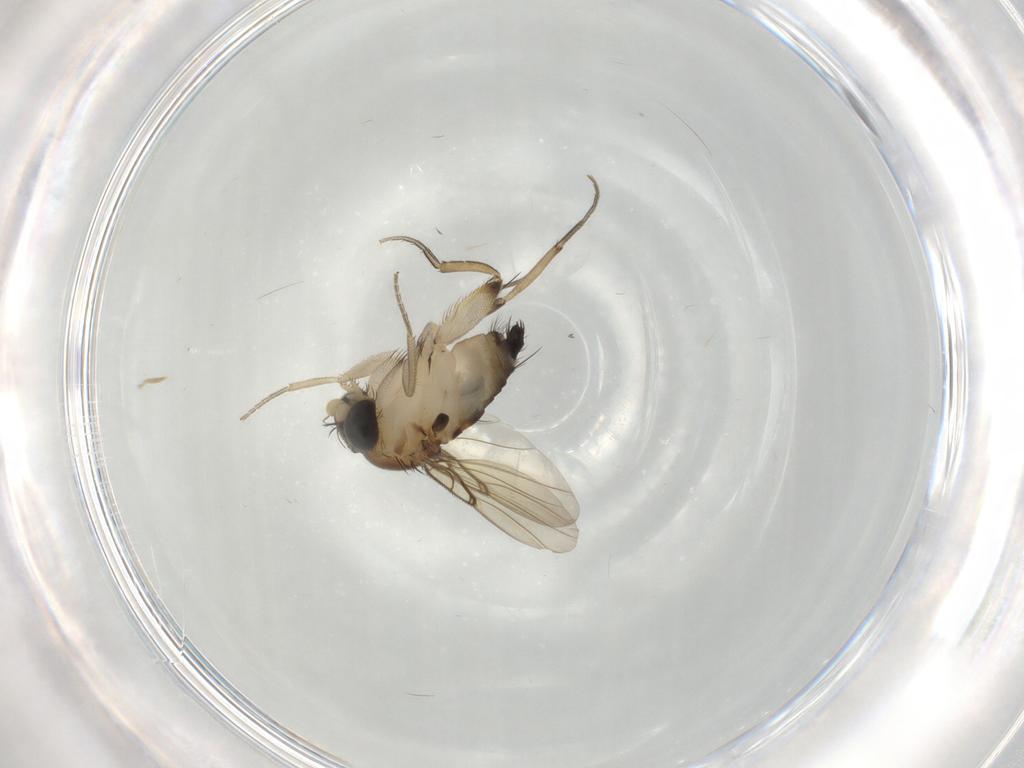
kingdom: Animalia
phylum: Arthropoda
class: Insecta
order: Diptera
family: Phoridae
